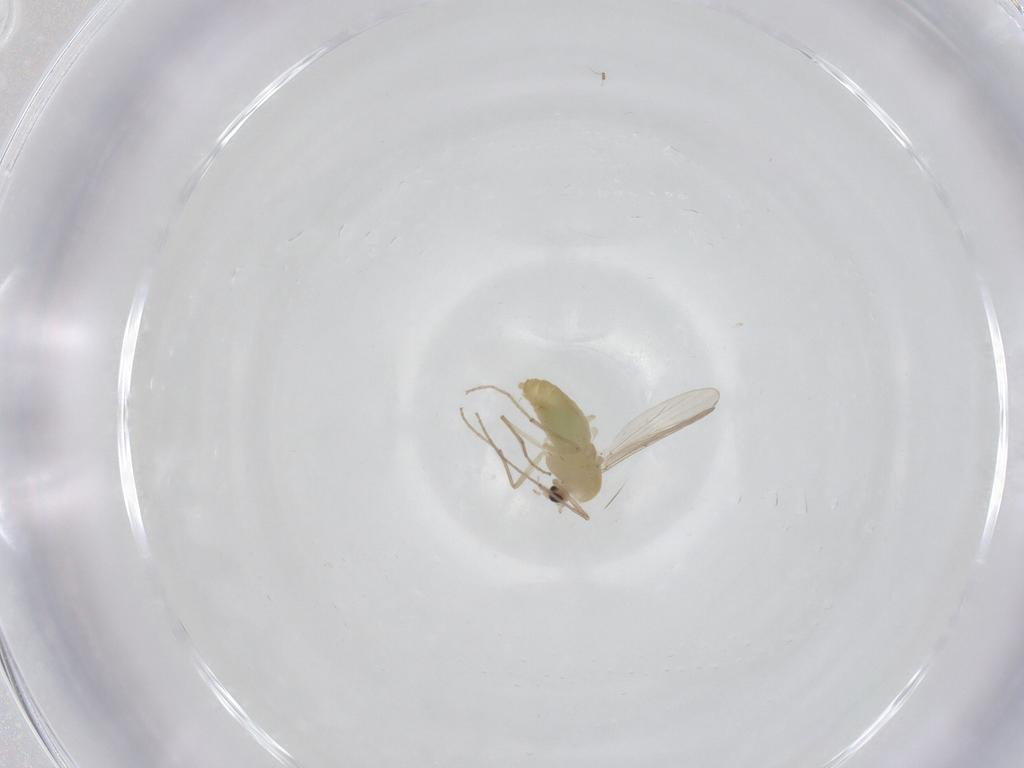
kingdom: Animalia
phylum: Arthropoda
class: Insecta
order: Diptera
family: Chironomidae
